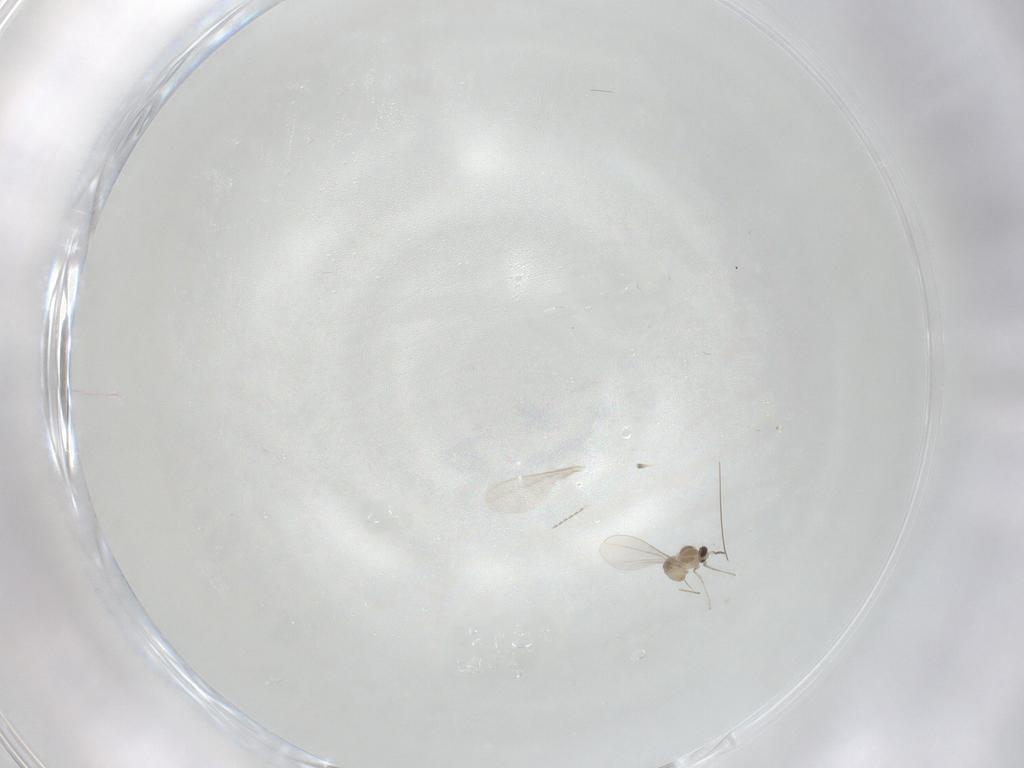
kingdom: Animalia
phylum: Arthropoda
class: Insecta
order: Diptera
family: Cecidomyiidae
